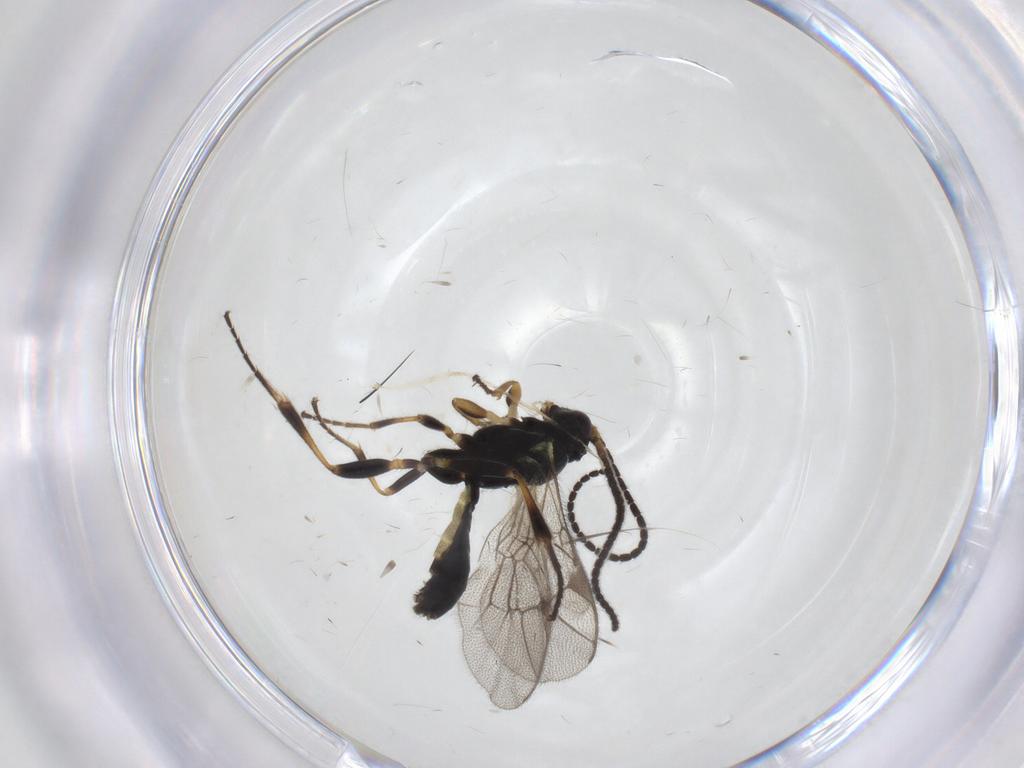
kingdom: Animalia
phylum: Arthropoda
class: Insecta
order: Hymenoptera
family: Ichneumonidae
